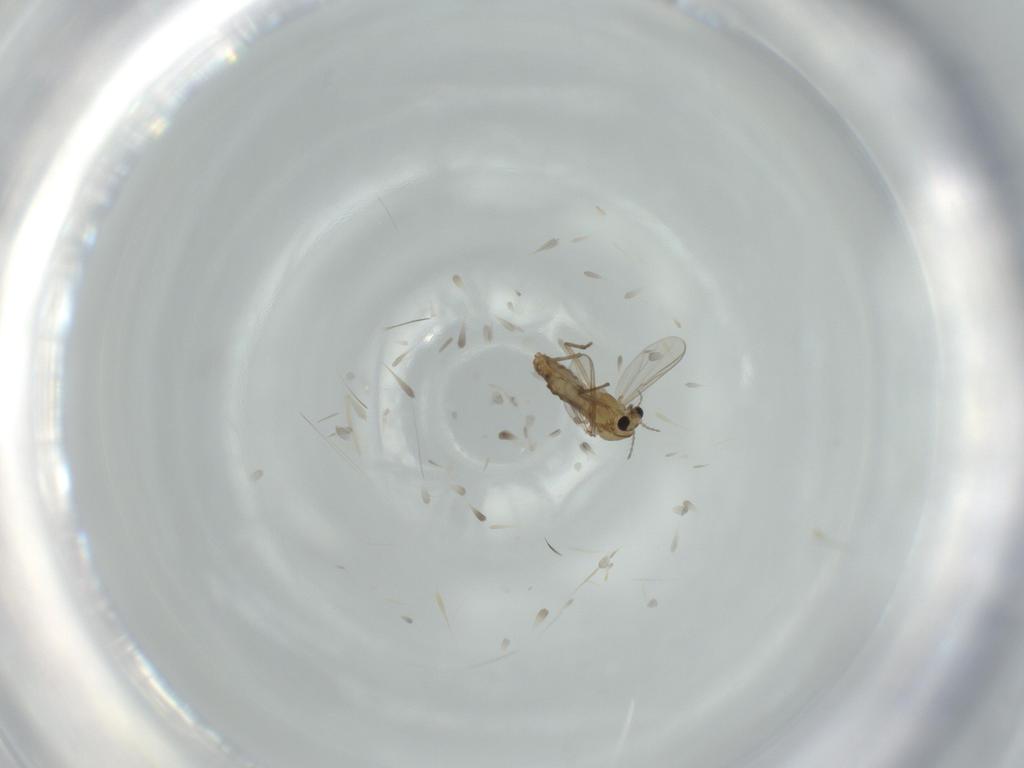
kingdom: Animalia
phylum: Arthropoda
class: Insecta
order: Diptera
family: Chironomidae
